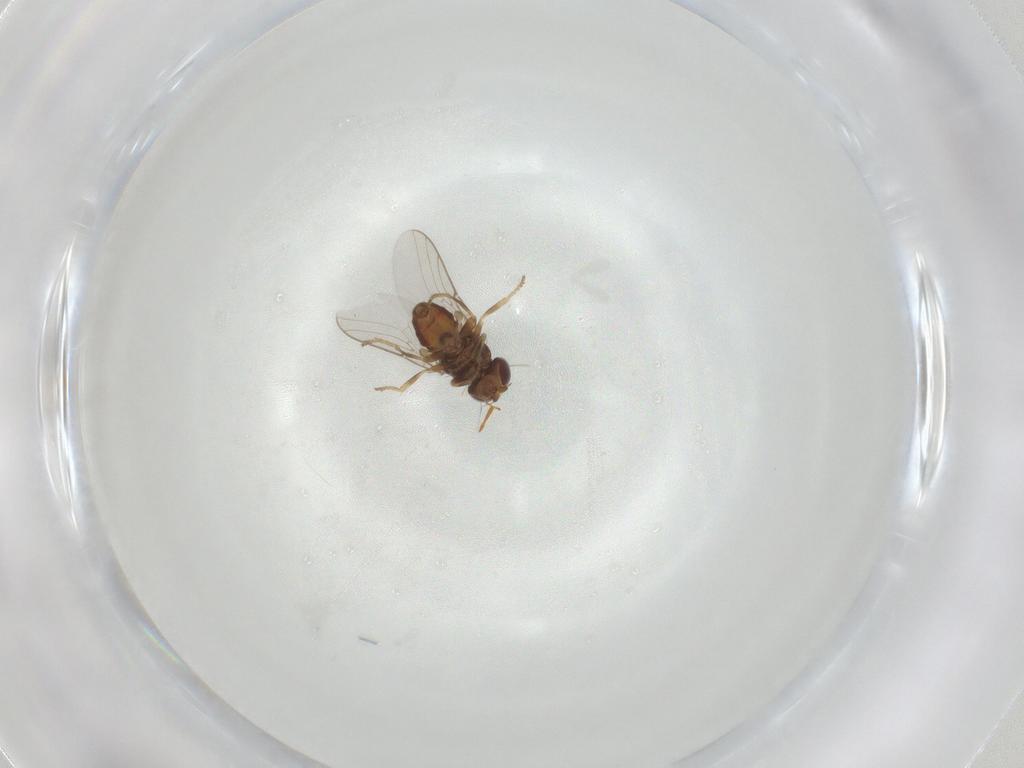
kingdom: Animalia
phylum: Arthropoda
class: Insecta
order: Diptera
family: Chloropidae
